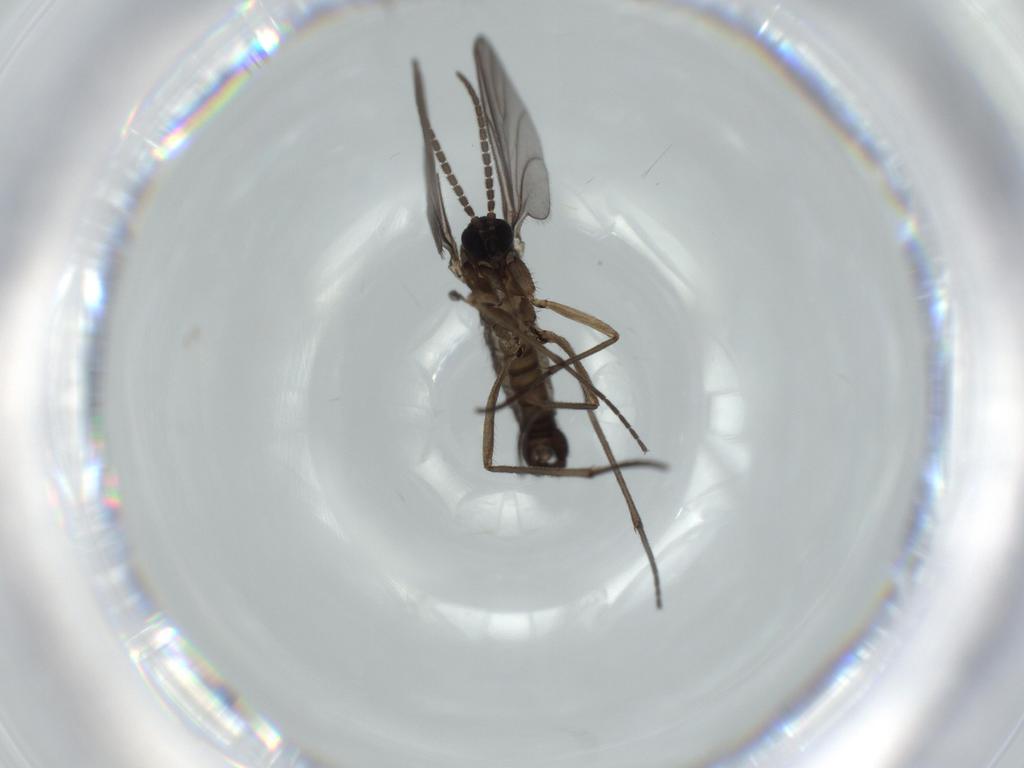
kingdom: Animalia
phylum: Arthropoda
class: Insecta
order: Diptera
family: Sciaridae
